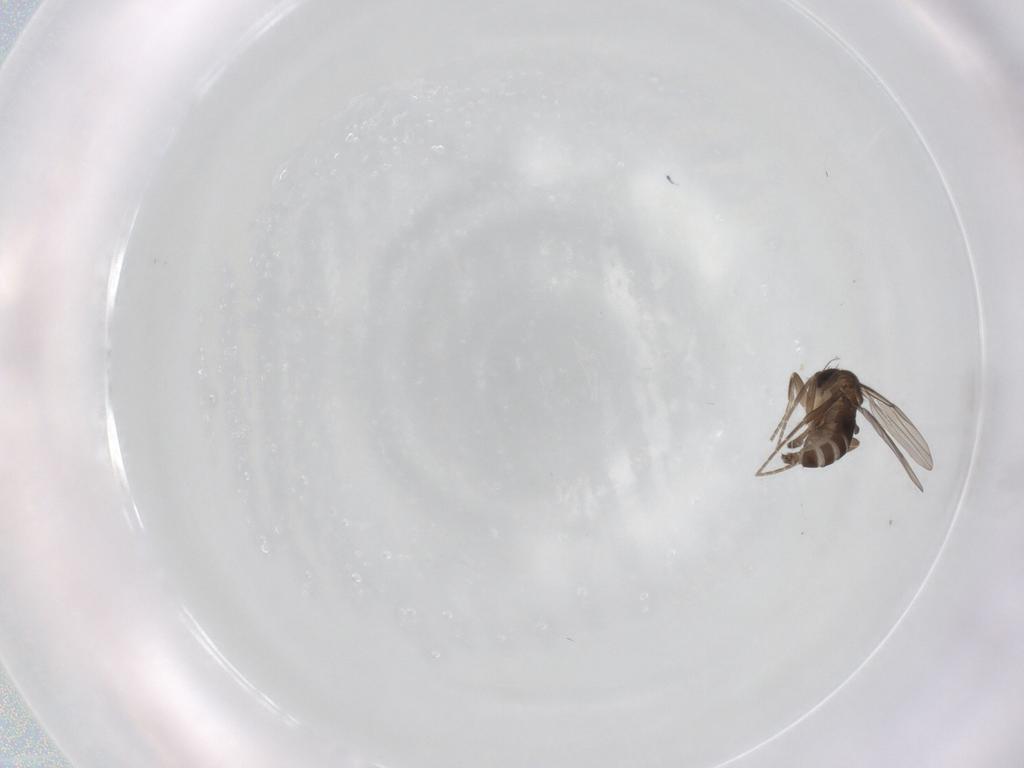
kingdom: Animalia
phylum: Arthropoda
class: Insecta
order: Diptera
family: Phoridae
